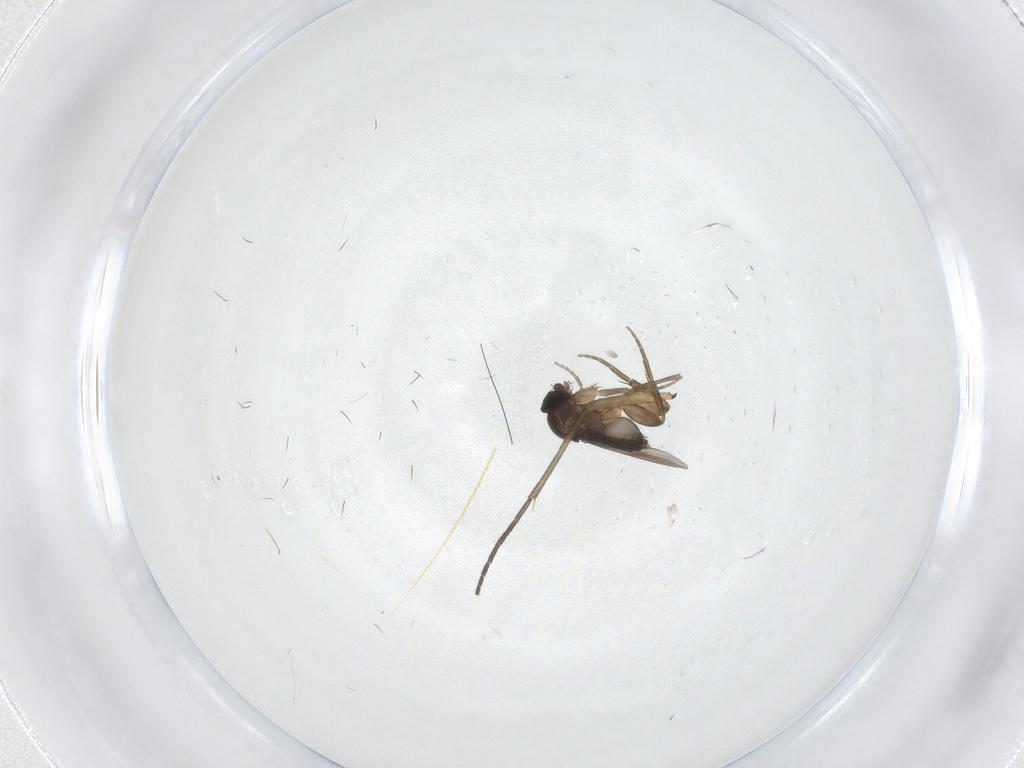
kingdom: Animalia
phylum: Arthropoda
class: Insecta
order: Diptera
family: Phoridae
